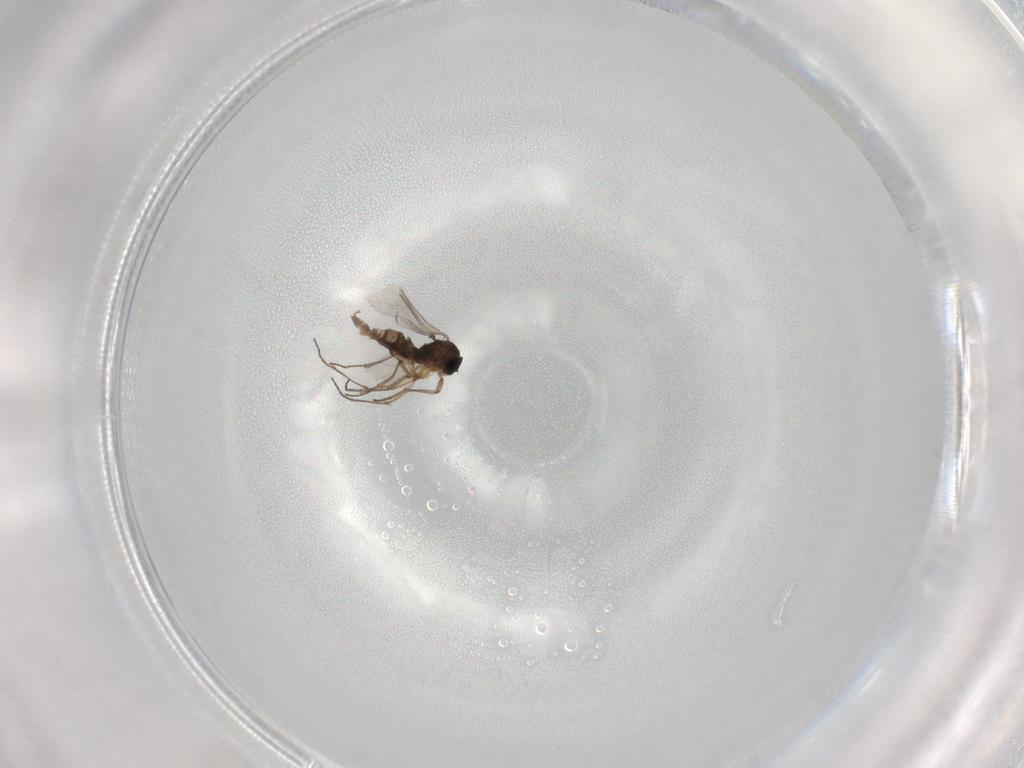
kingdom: Animalia
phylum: Arthropoda
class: Insecta
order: Diptera
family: Sciaridae
